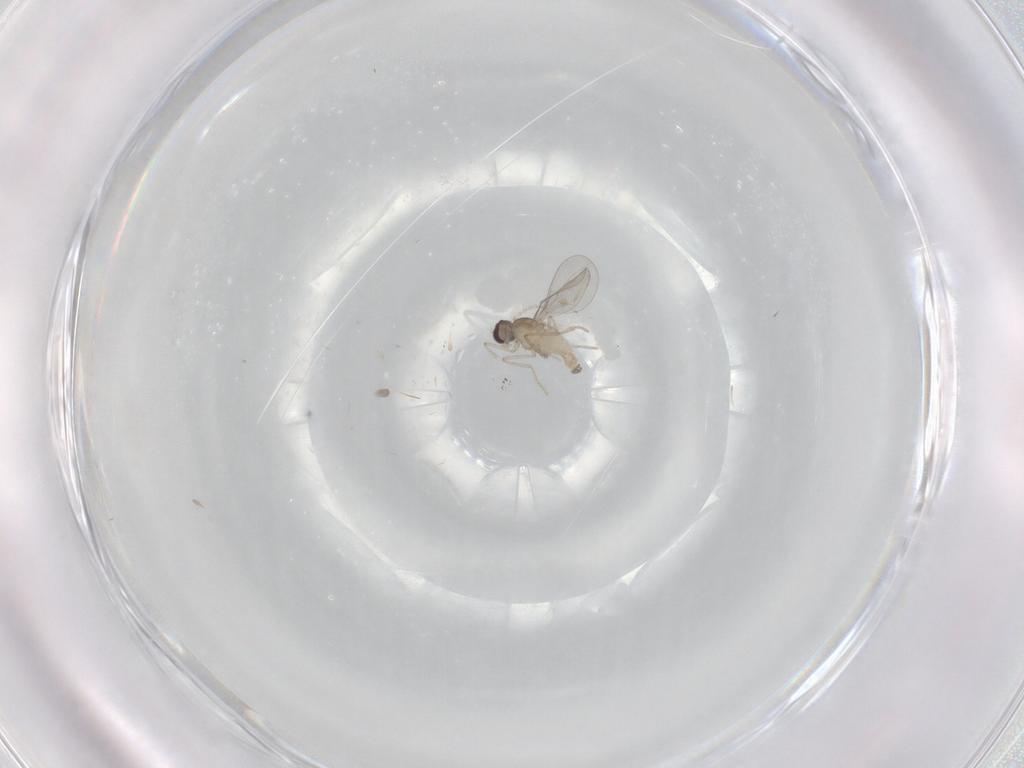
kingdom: Animalia
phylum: Arthropoda
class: Insecta
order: Diptera
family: Cecidomyiidae
